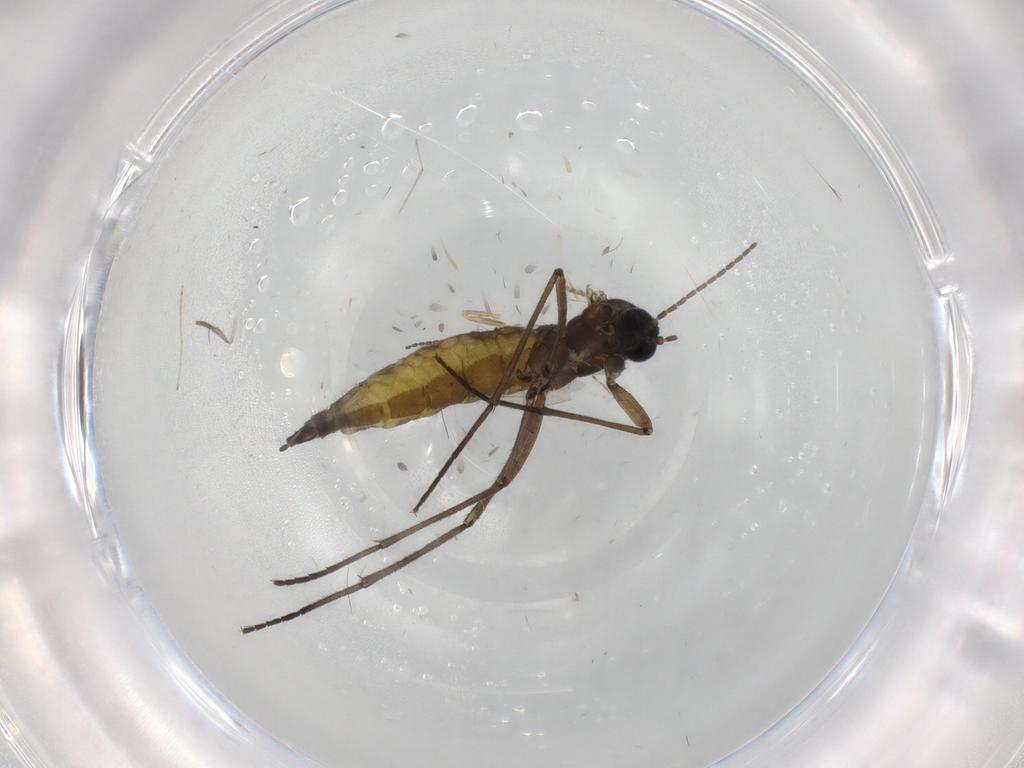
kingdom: Animalia
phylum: Arthropoda
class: Insecta
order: Diptera
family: Sciaridae
